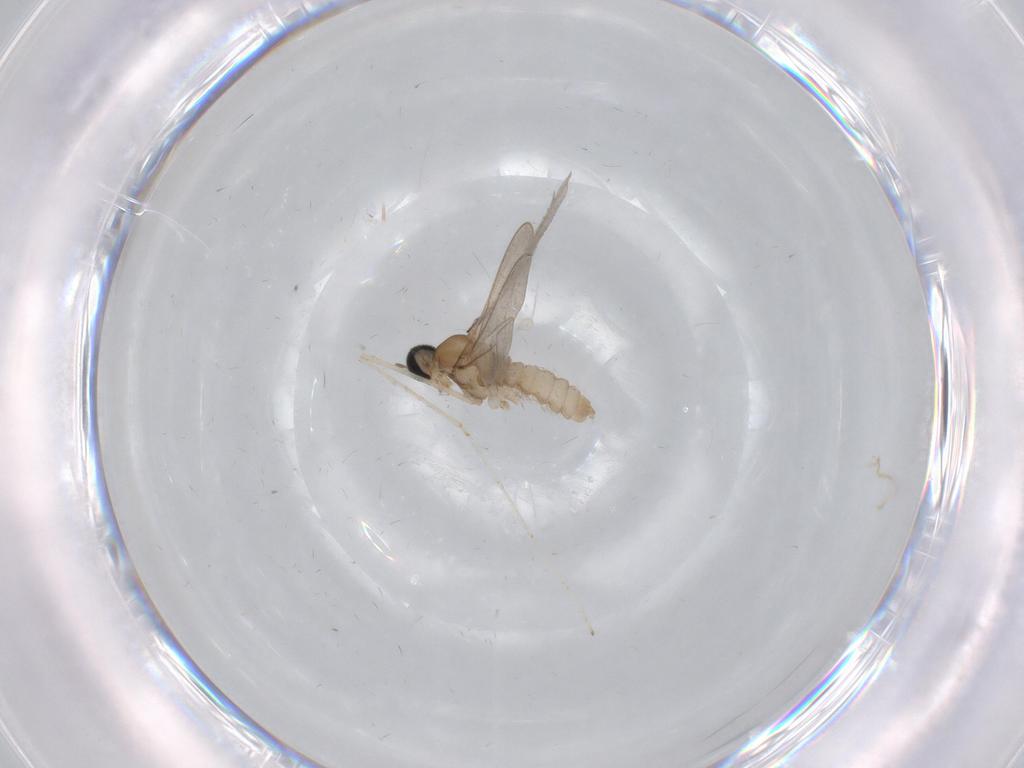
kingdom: Animalia
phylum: Arthropoda
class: Insecta
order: Diptera
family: Cecidomyiidae
